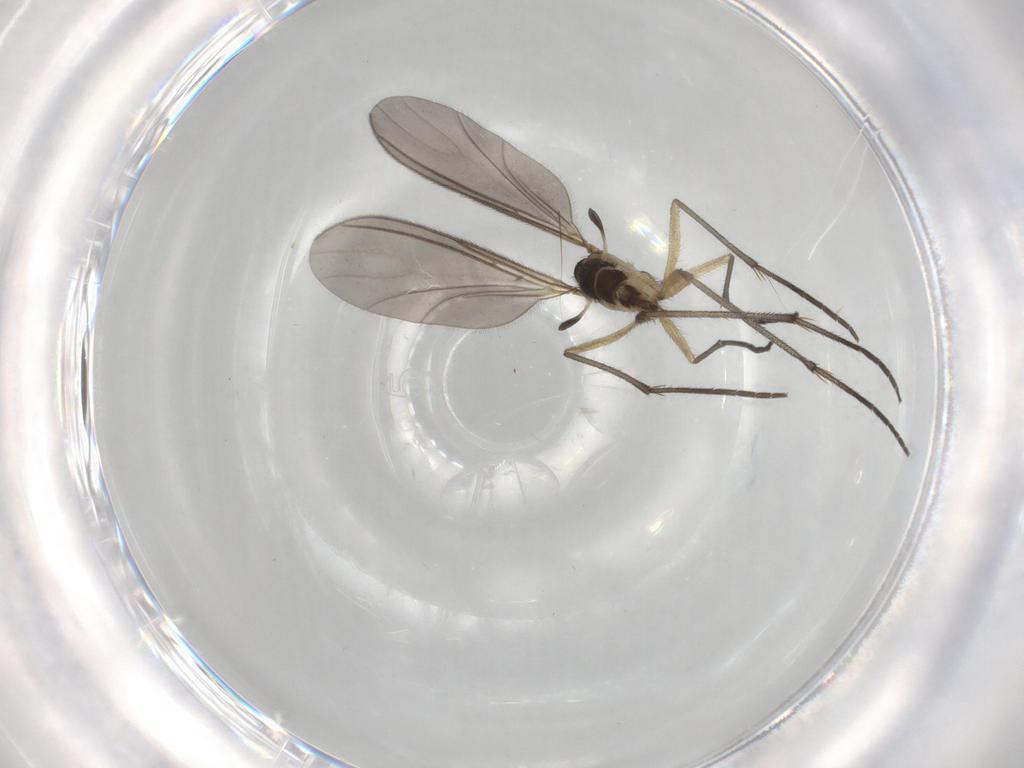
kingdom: Animalia
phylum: Arthropoda
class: Insecta
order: Diptera
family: Sciaridae
